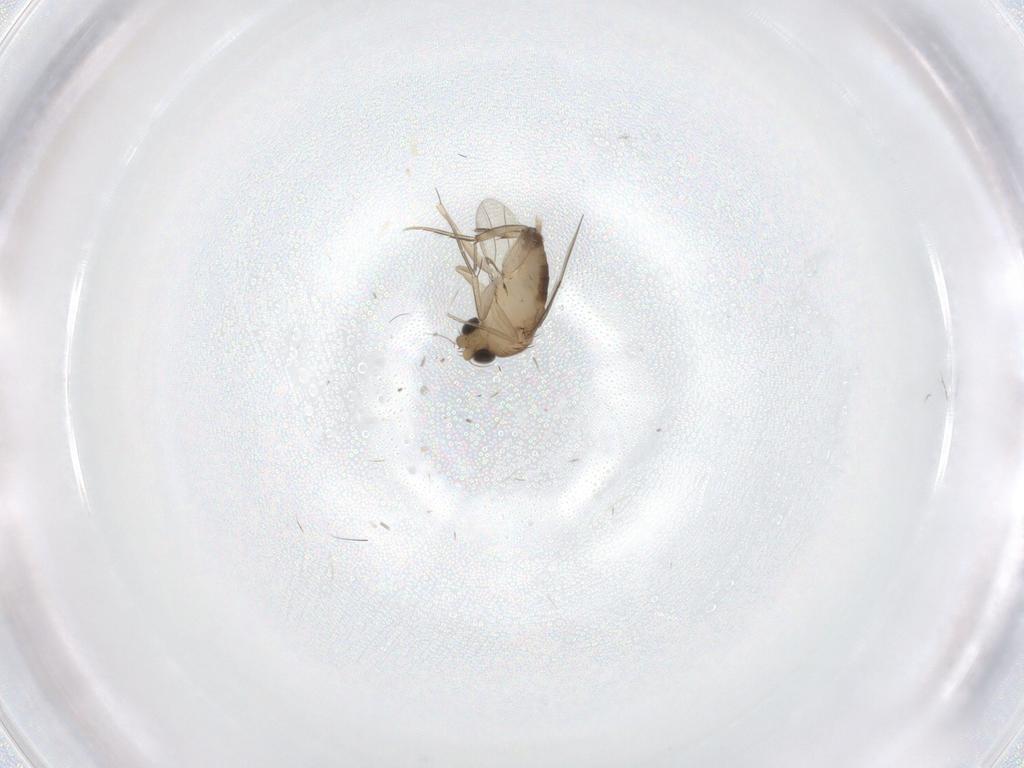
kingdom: Animalia
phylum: Arthropoda
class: Insecta
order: Diptera
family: Phoridae
